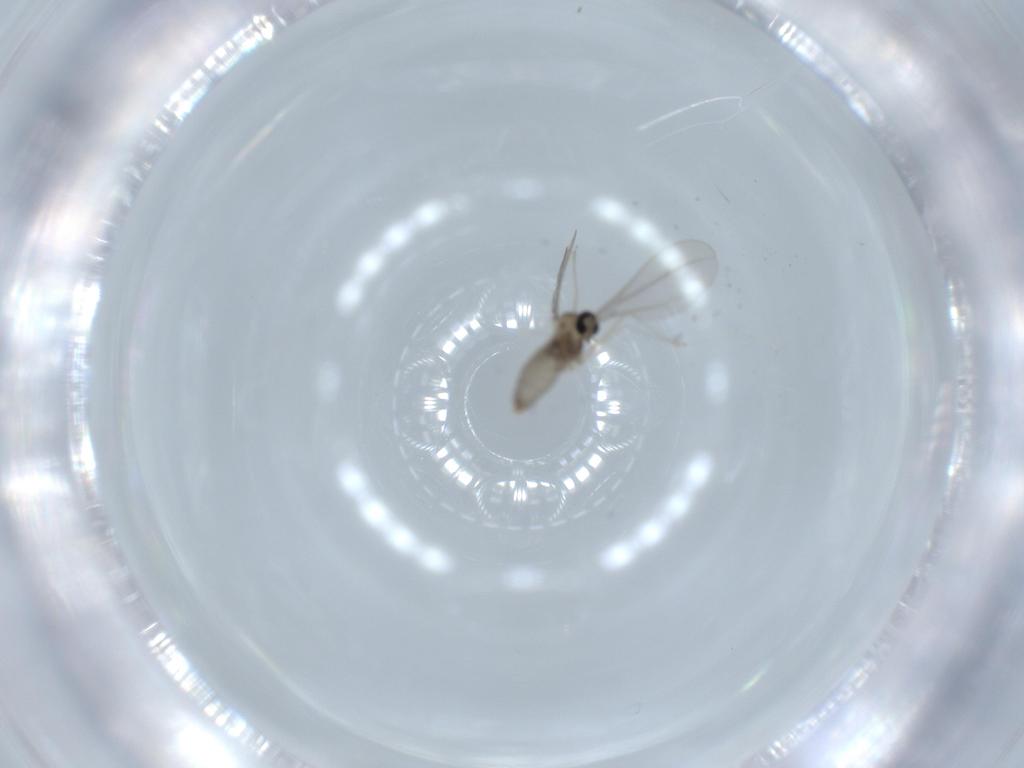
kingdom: Animalia
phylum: Arthropoda
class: Insecta
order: Diptera
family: Cecidomyiidae
